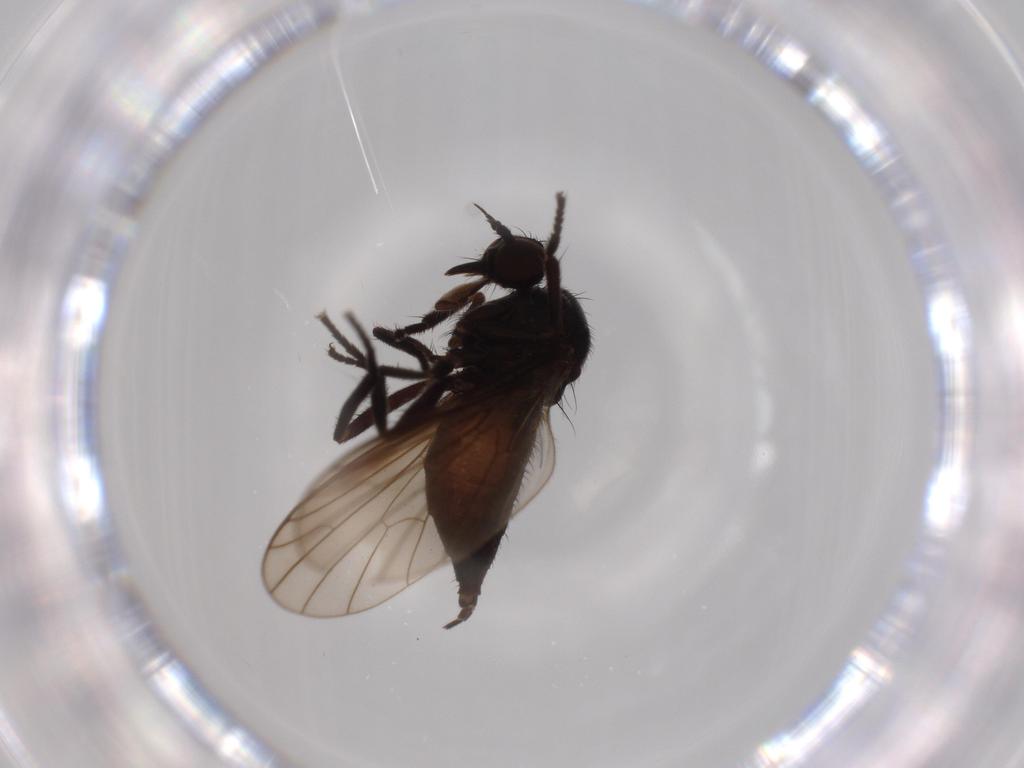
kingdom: Animalia
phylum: Arthropoda
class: Insecta
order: Diptera
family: Empididae
